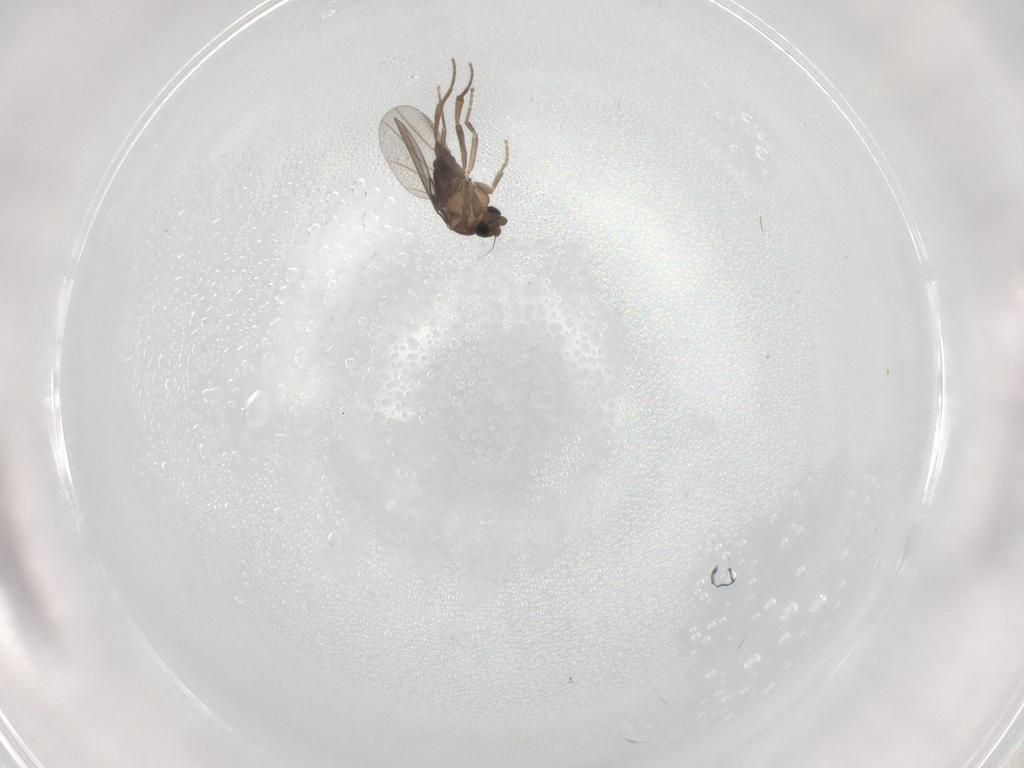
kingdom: Animalia
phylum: Arthropoda
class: Insecta
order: Diptera
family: Anisopodidae
